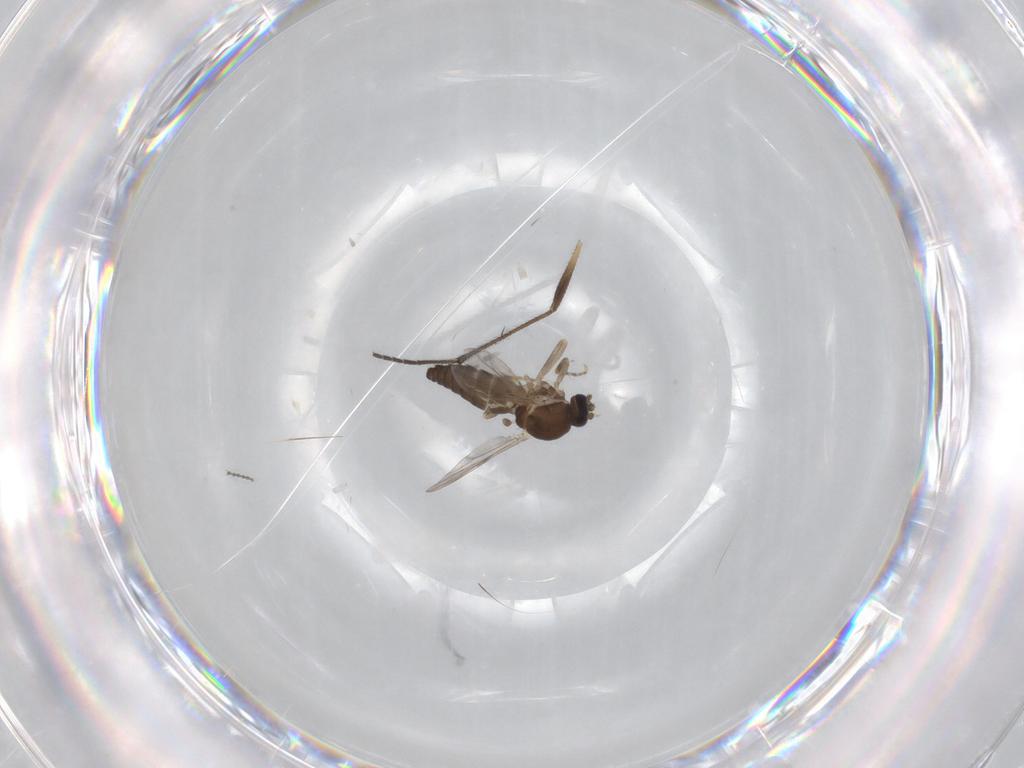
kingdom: Animalia
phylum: Arthropoda
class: Insecta
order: Diptera
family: Ceratopogonidae
